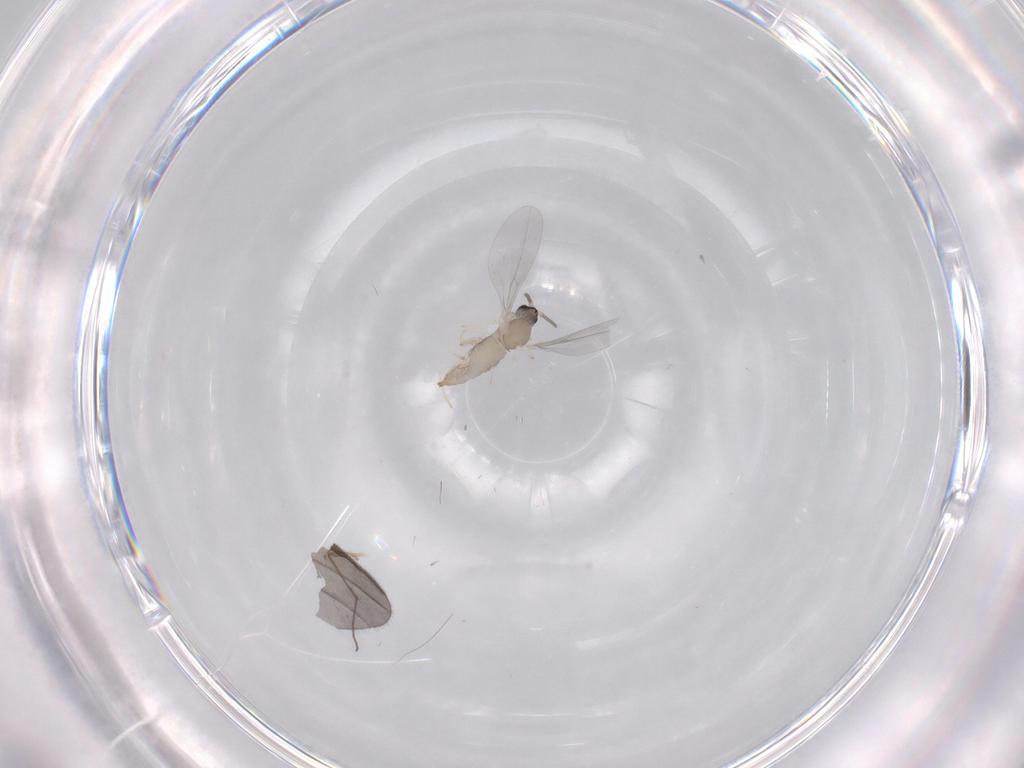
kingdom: Animalia
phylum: Arthropoda
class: Insecta
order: Diptera
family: Cecidomyiidae
